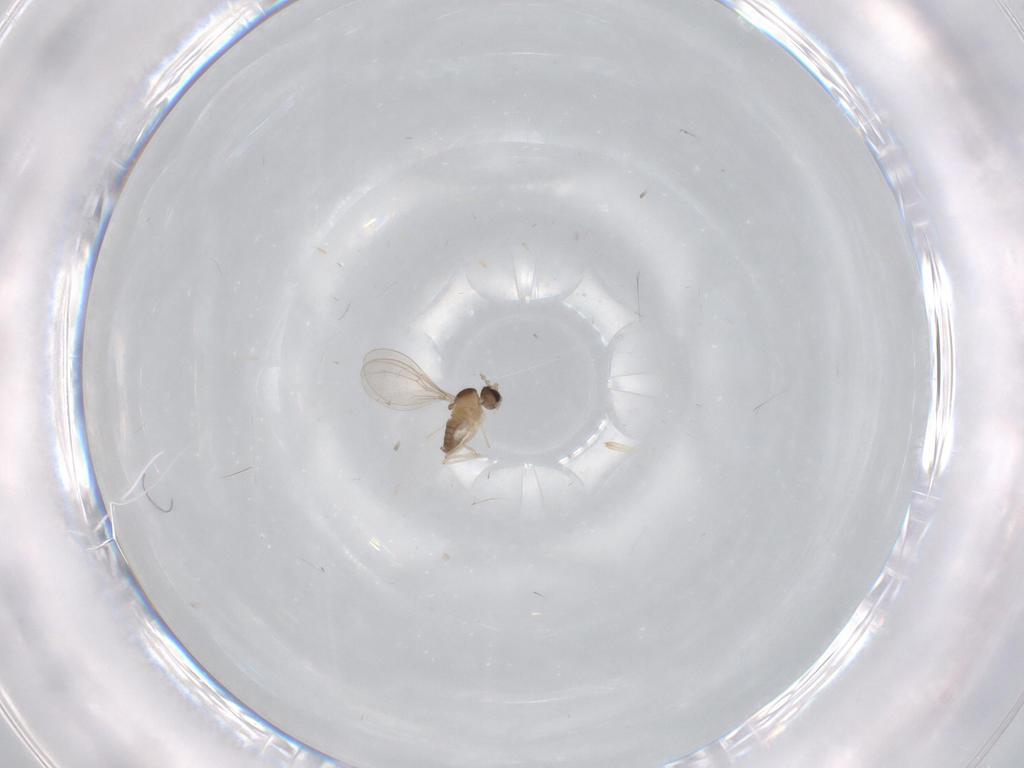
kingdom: Animalia
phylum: Arthropoda
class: Insecta
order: Diptera
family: Cecidomyiidae
